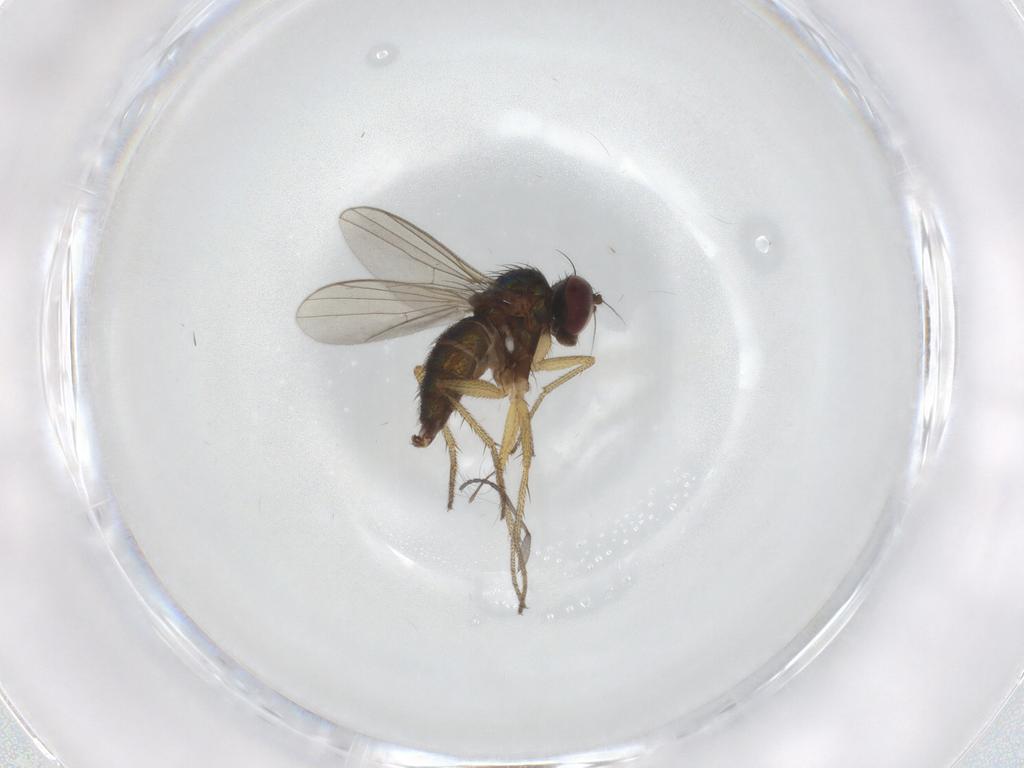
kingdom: Animalia
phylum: Arthropoda
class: Insecta
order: Diptera
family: Sciaridae
